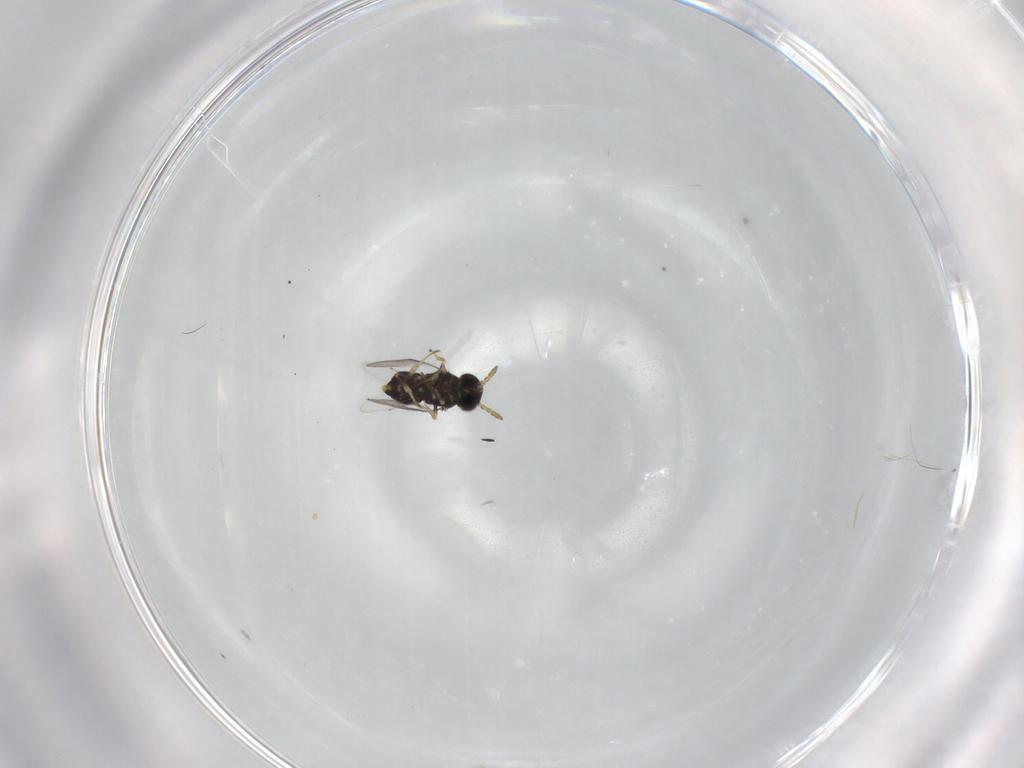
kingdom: Animalia
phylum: Arthropoda
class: Insecta
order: Hymenoptera
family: Aphelinidae
